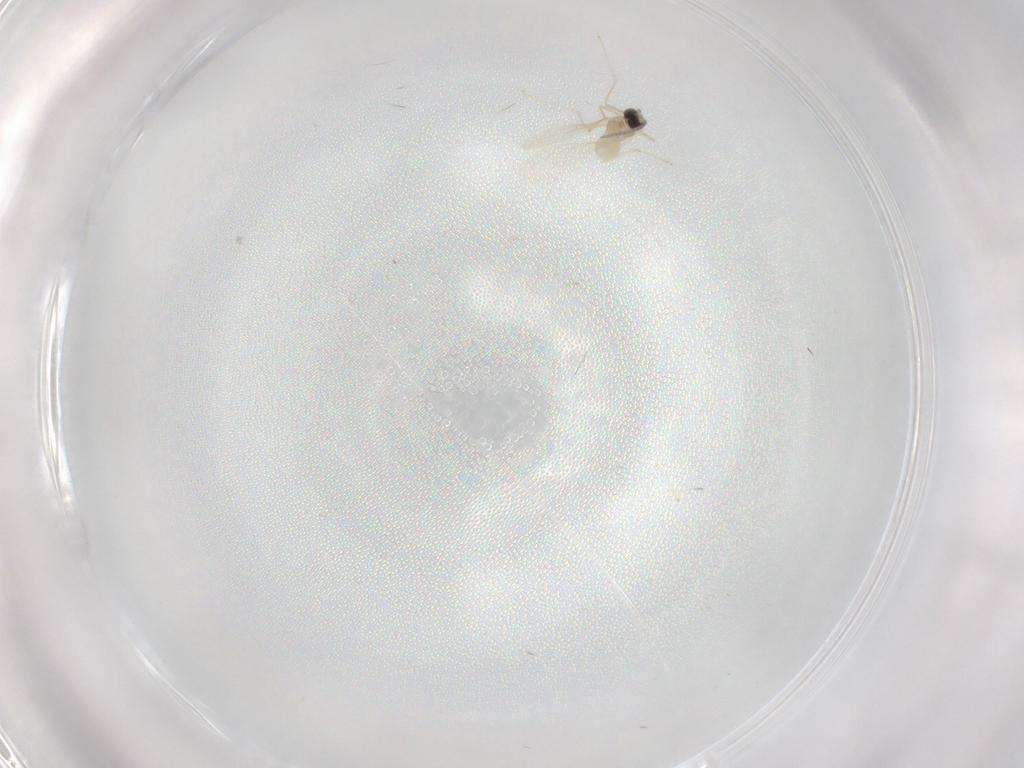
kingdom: Animalia
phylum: Arthropoda
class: Insecta
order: Diptera
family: Cecidomyiidae
